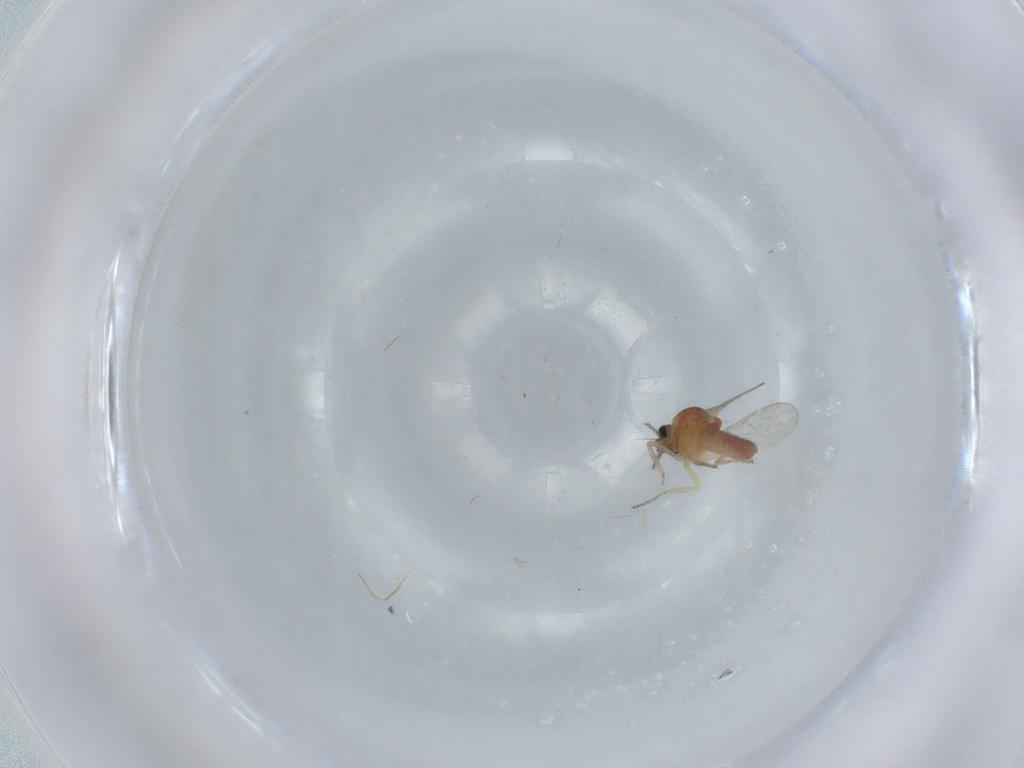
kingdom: Animalia
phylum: Arthropoda
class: Insecta
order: Diptera
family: Ceratopogonidae
